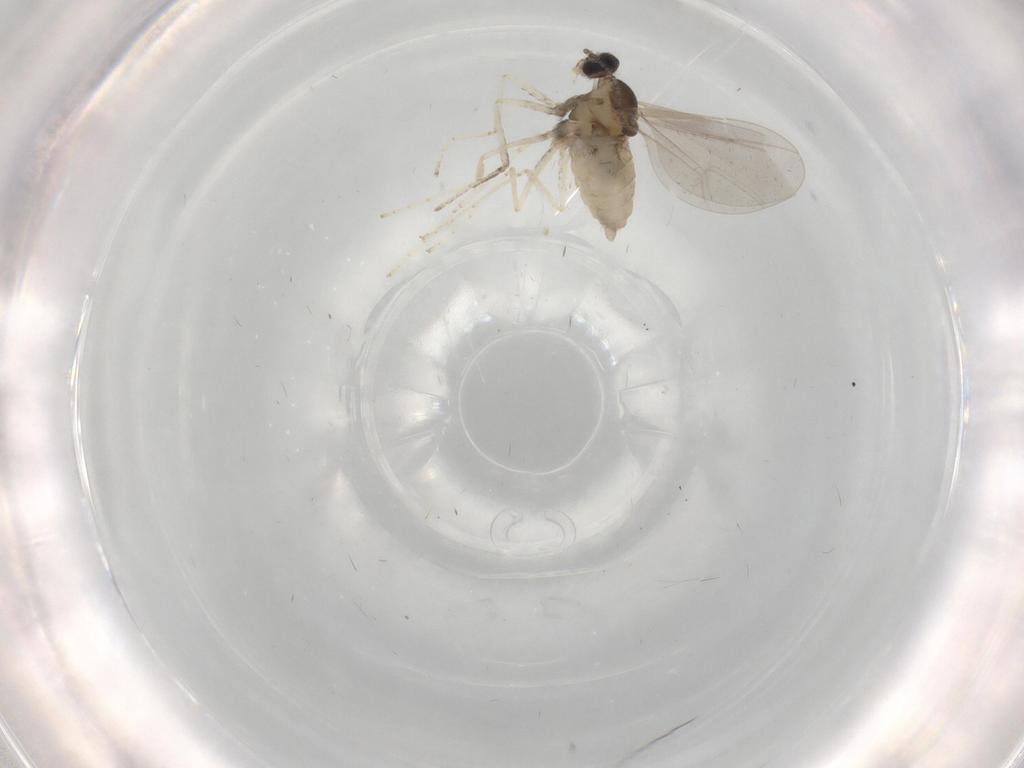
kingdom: Animalia
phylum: Arthropoda
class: Insecta
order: Diptera
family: Cecidomyiidae
